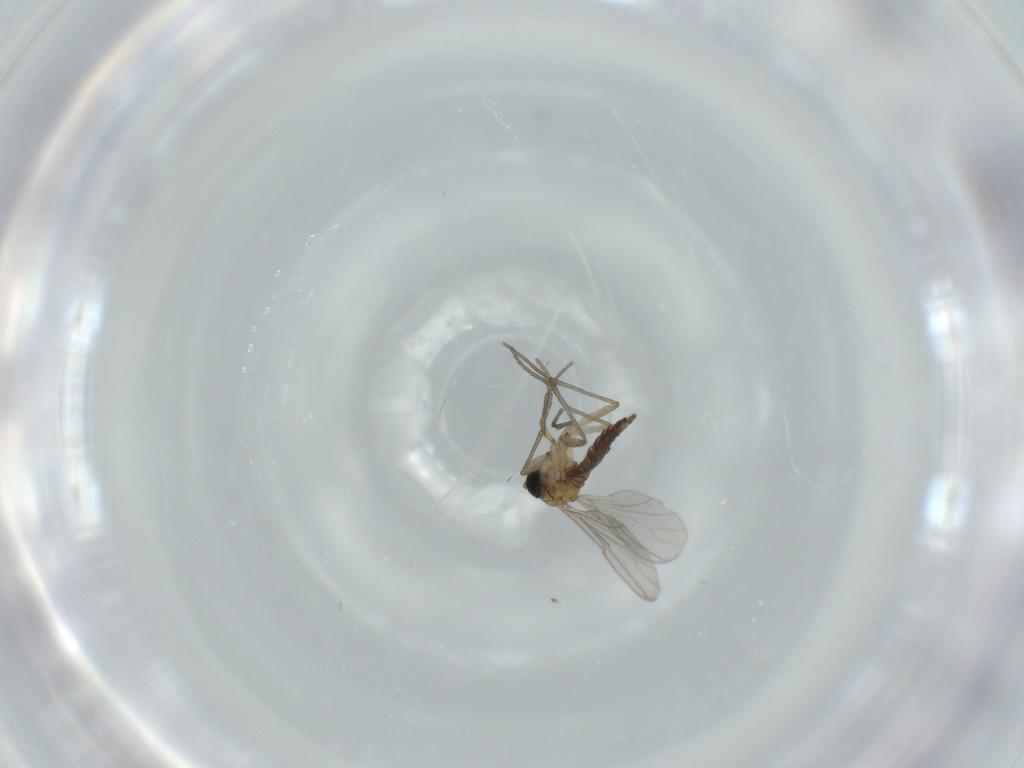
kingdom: Animalia
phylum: Arthropoda
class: Insecta
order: Diptera
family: Sciaridae
